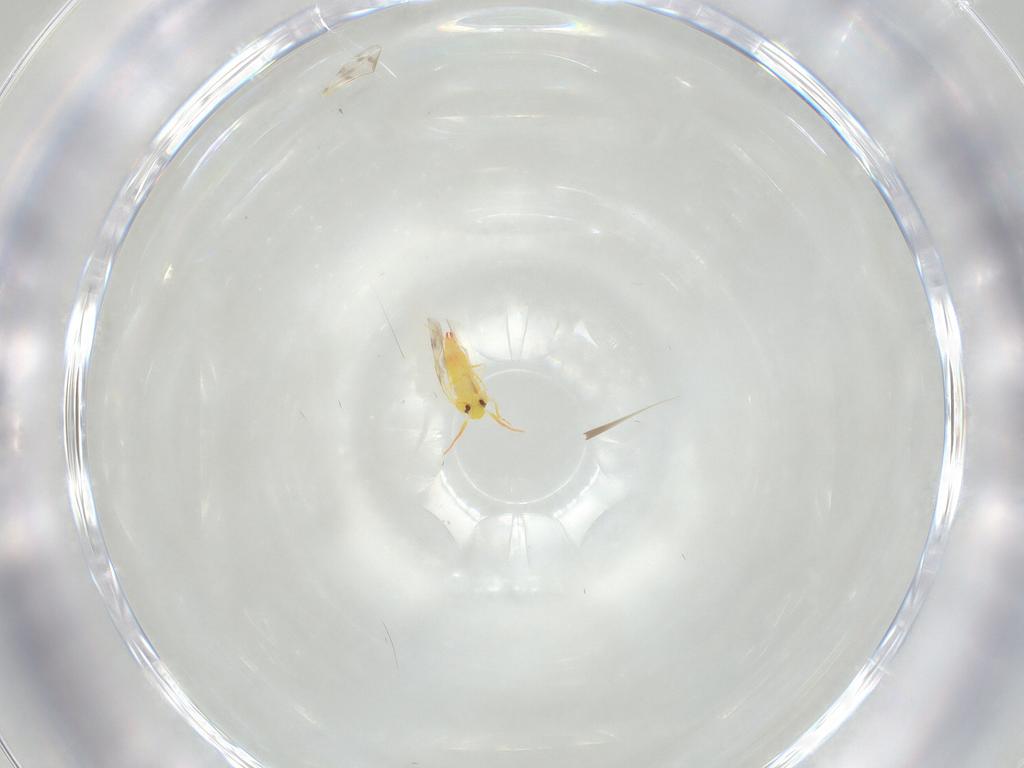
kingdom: Animalia
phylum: Arthropoda
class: Insecta
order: Hemiptera
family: Aleyrodidae
